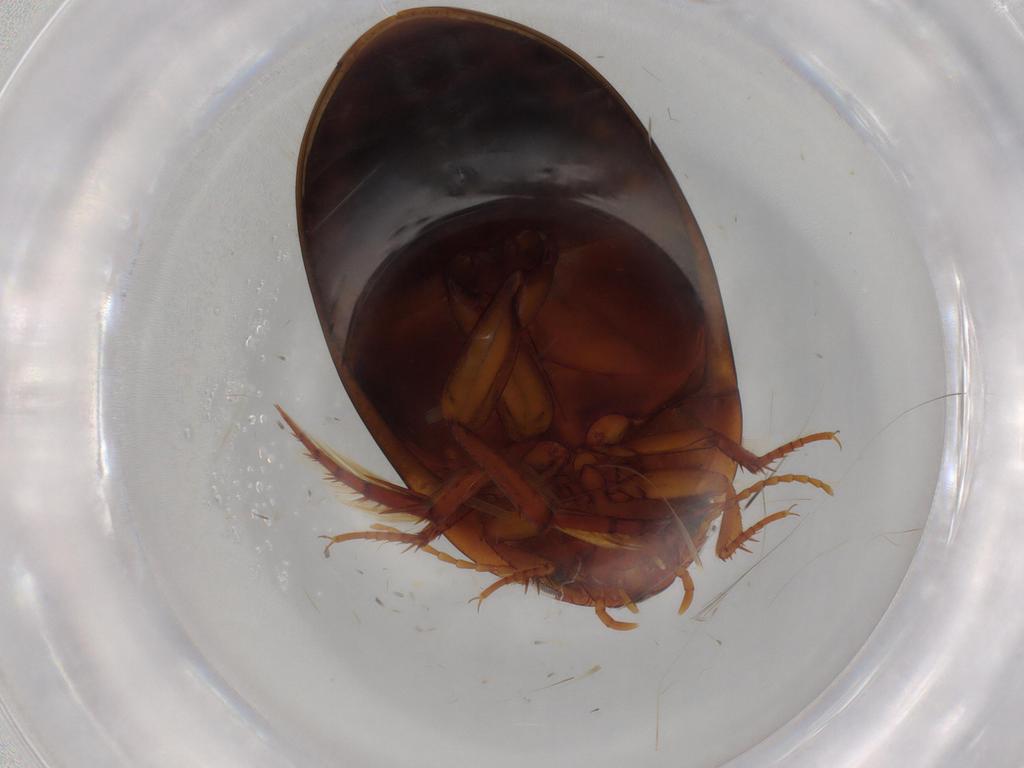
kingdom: Animalia
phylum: Arthropoda
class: Insecta
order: Coleoptera
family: Dytiscidae
